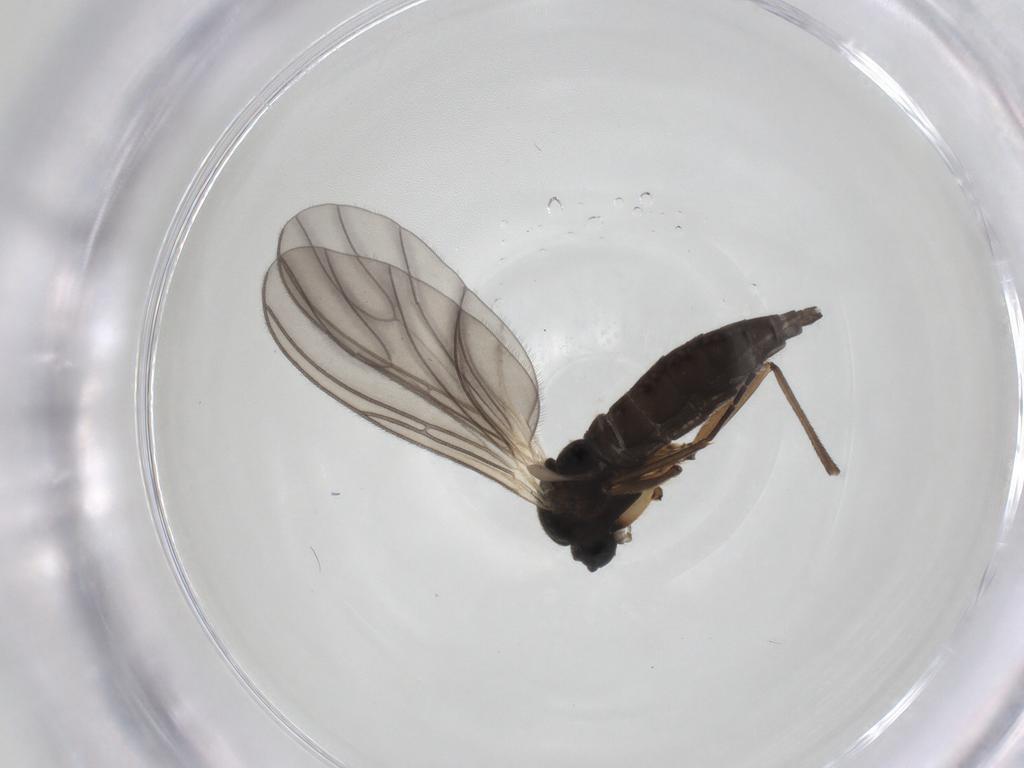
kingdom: Animalia
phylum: Arthropoda
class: Insecta
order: Diptera
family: Sciaridae
